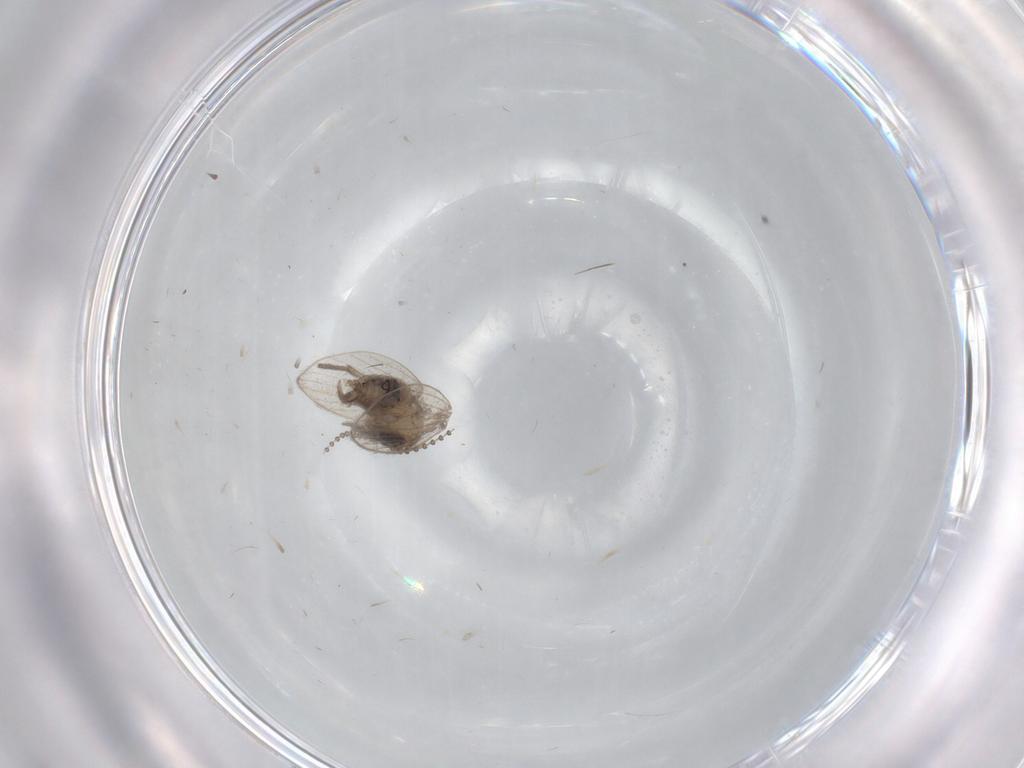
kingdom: Animalia
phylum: Arthropoda
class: Insecta
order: Diptera
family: Psychodidae
